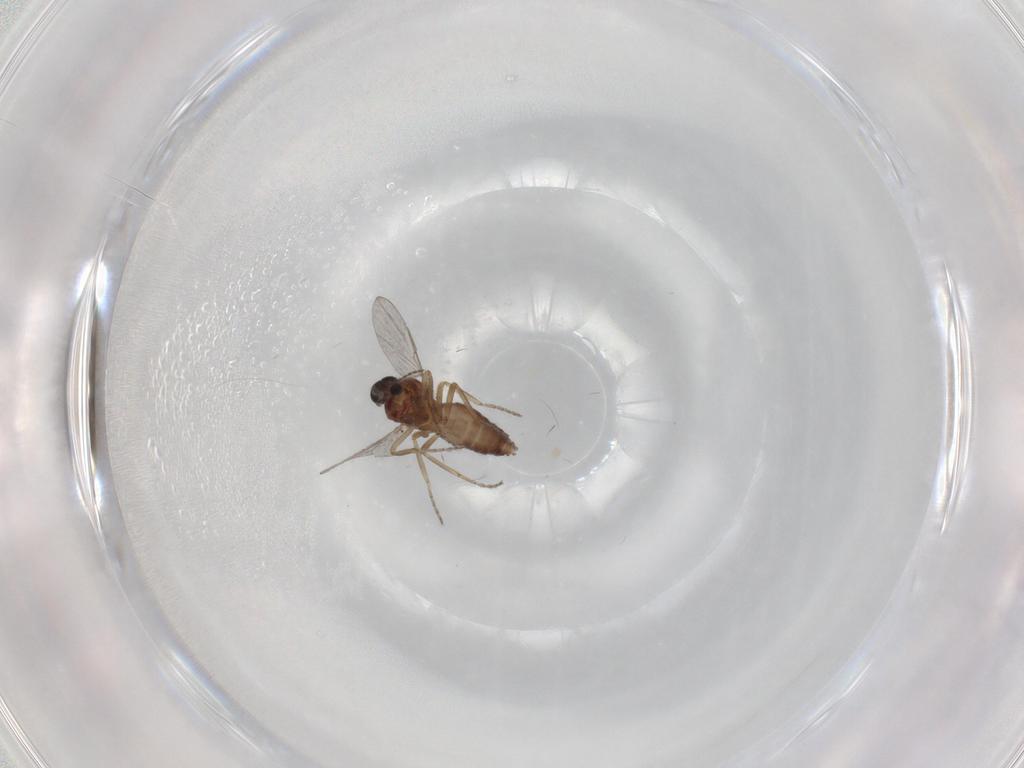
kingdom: Animalia
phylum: Arthropoda
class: Insecta
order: Diptera
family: Ceratopogonidae
